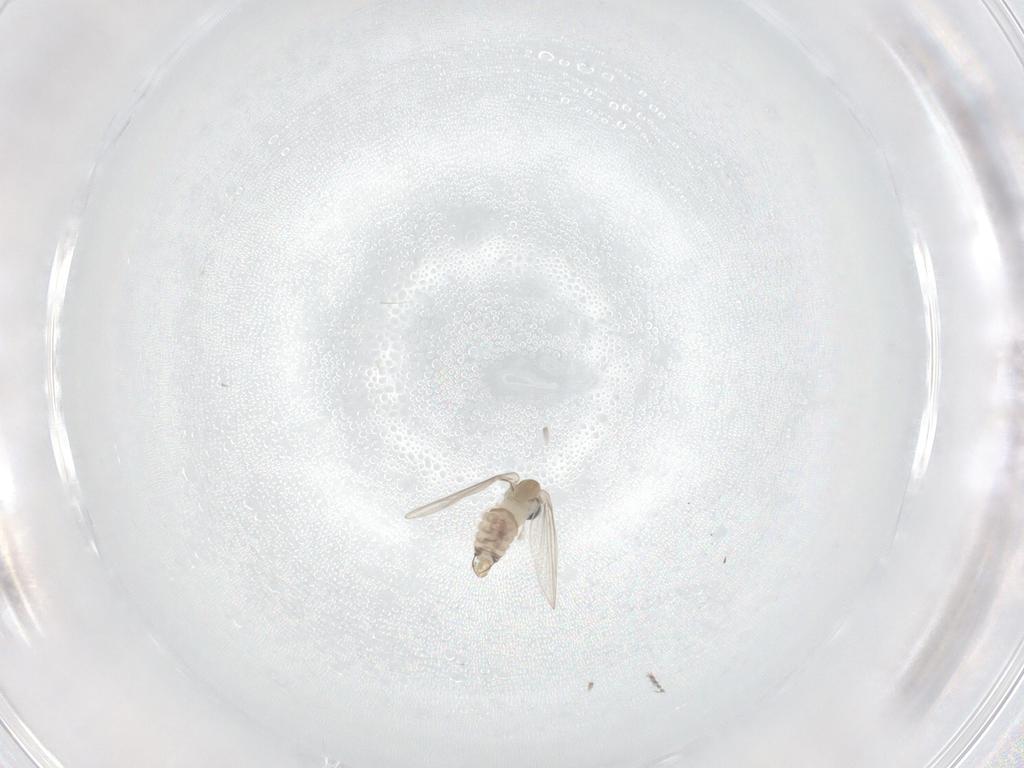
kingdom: Animalia
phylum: Arthropoda
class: Insecta
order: Diptera
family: Psychodidae
